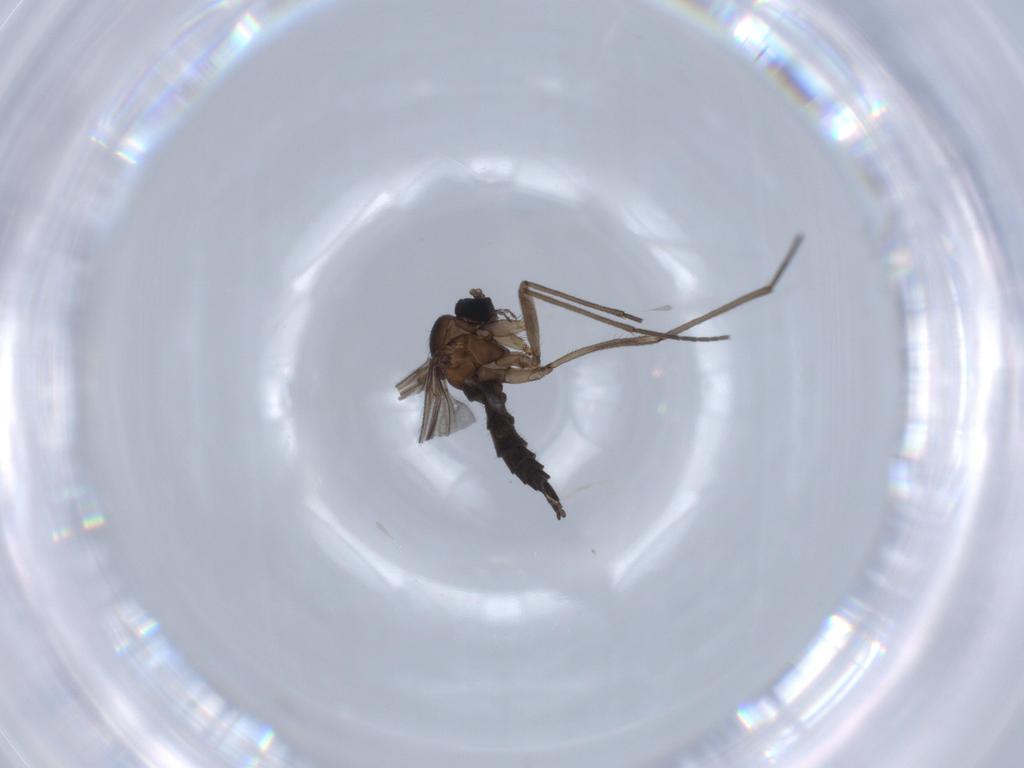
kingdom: Animalia
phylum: Arthropoda
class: Insecta
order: Diptera
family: Sciaridae
